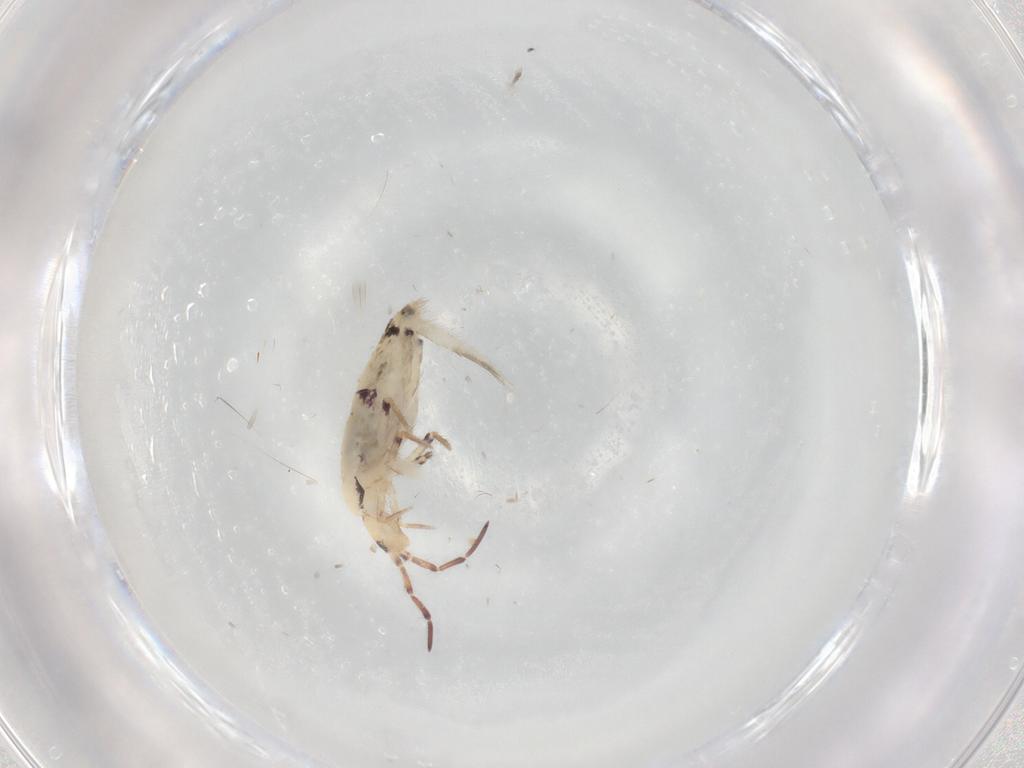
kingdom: Animalia
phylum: Arthropoda
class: Collembola
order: Entomobryomorpha
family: Entomobryidae
